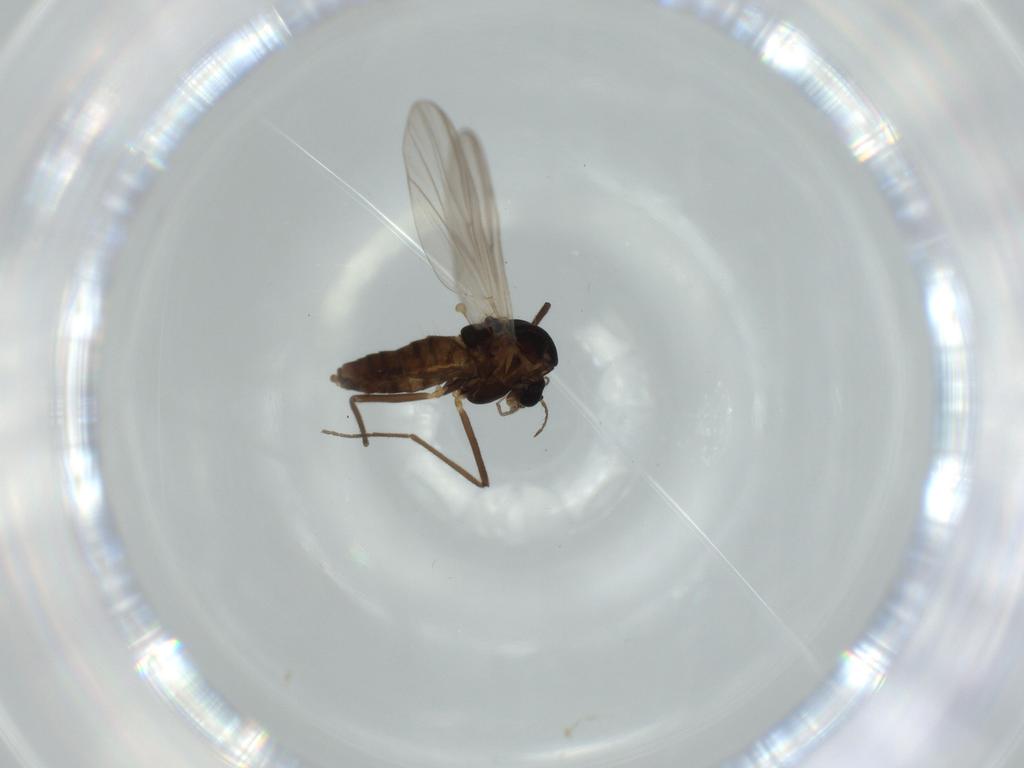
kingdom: Animalia
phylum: Arthropoda
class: Insecta
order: Diptera
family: Chironomidae
